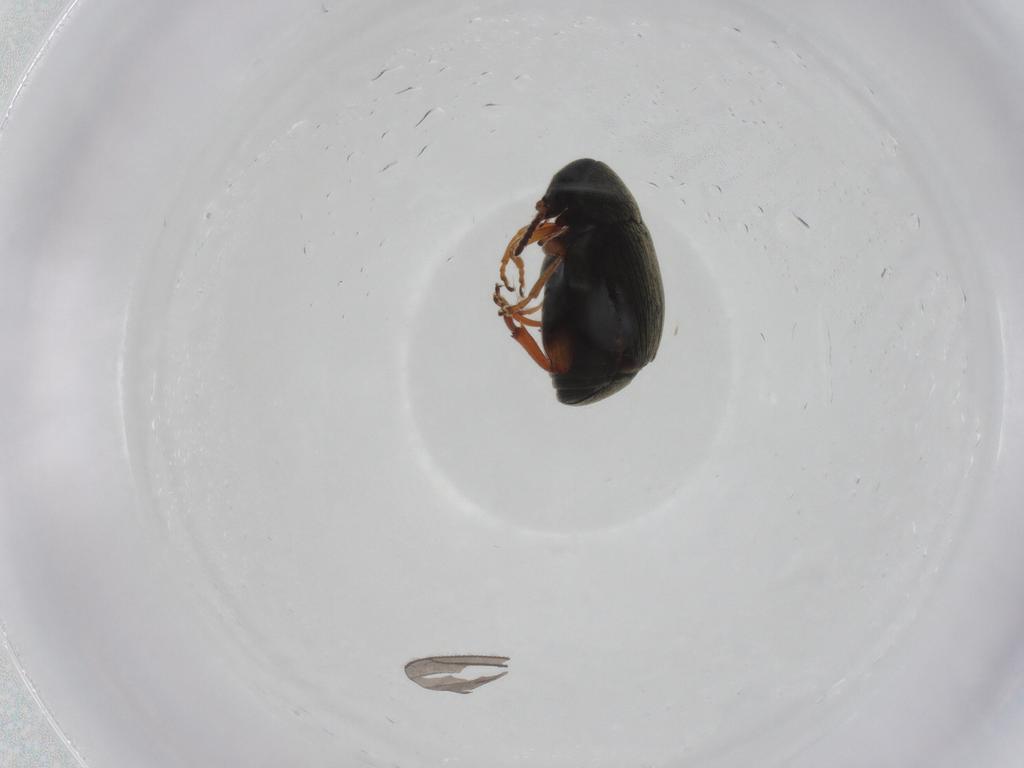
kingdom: Animalia
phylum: Arthropoda
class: Insecta
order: Coleoptera
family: Chrysomelidae
